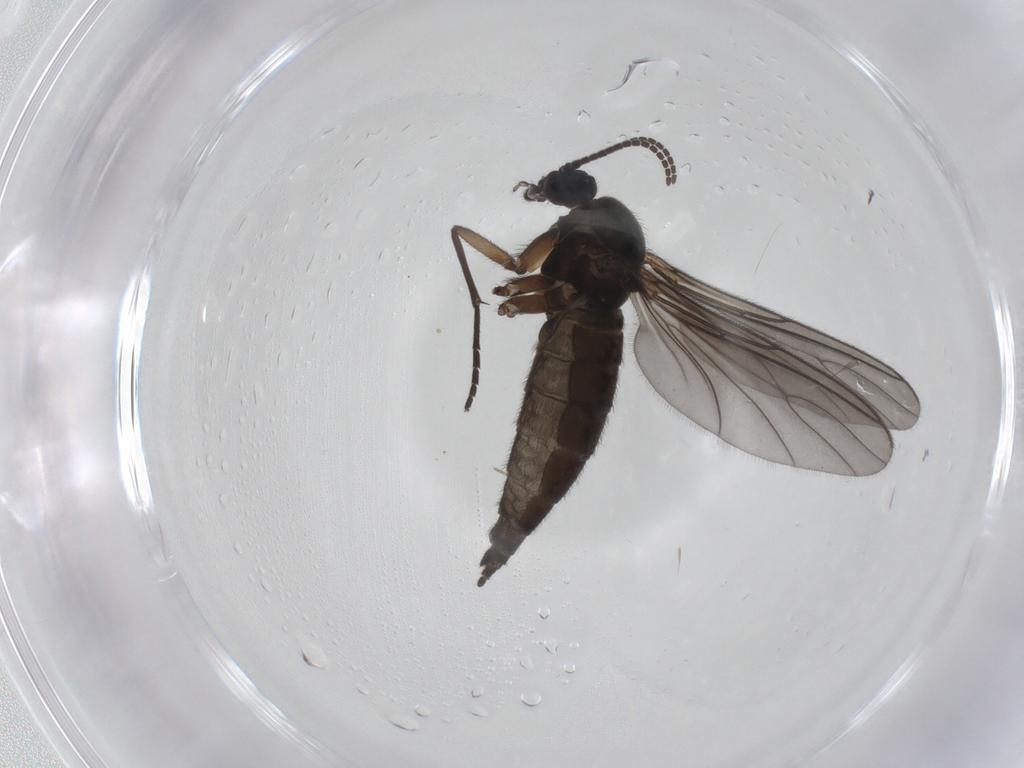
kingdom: Animalia
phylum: Arthropoda
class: Insecta
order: Diptera
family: Sciaridae
